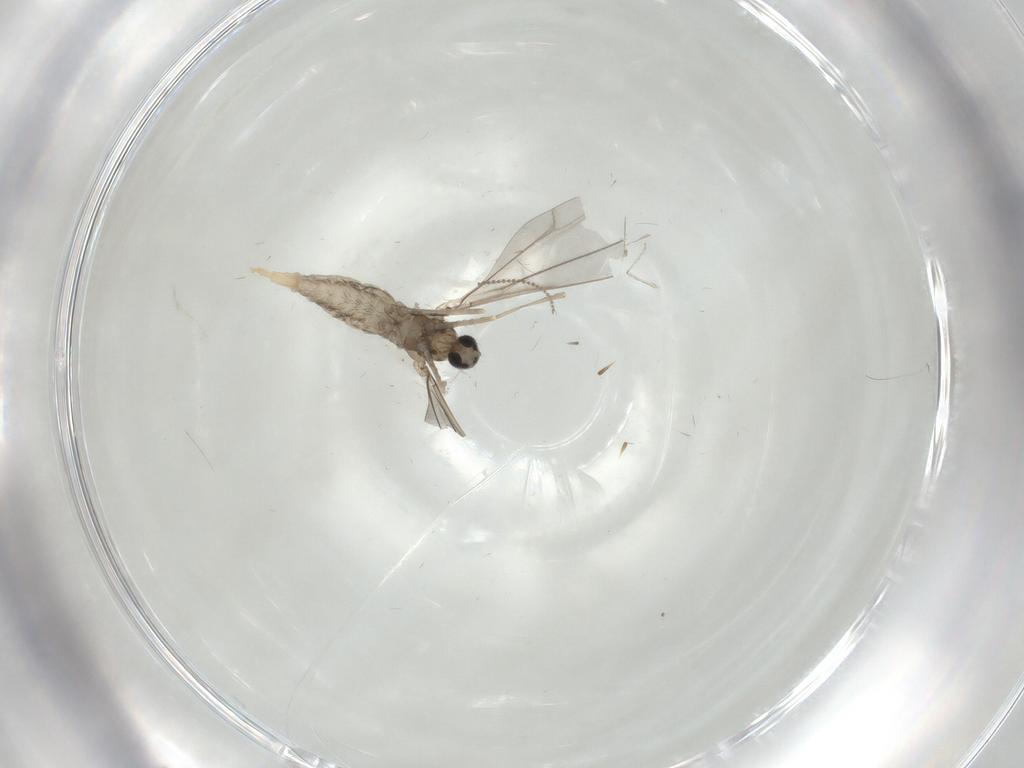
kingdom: Animalia
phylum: Arthropoda
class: Insecta
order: Diptera
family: Cecidomyiidae
